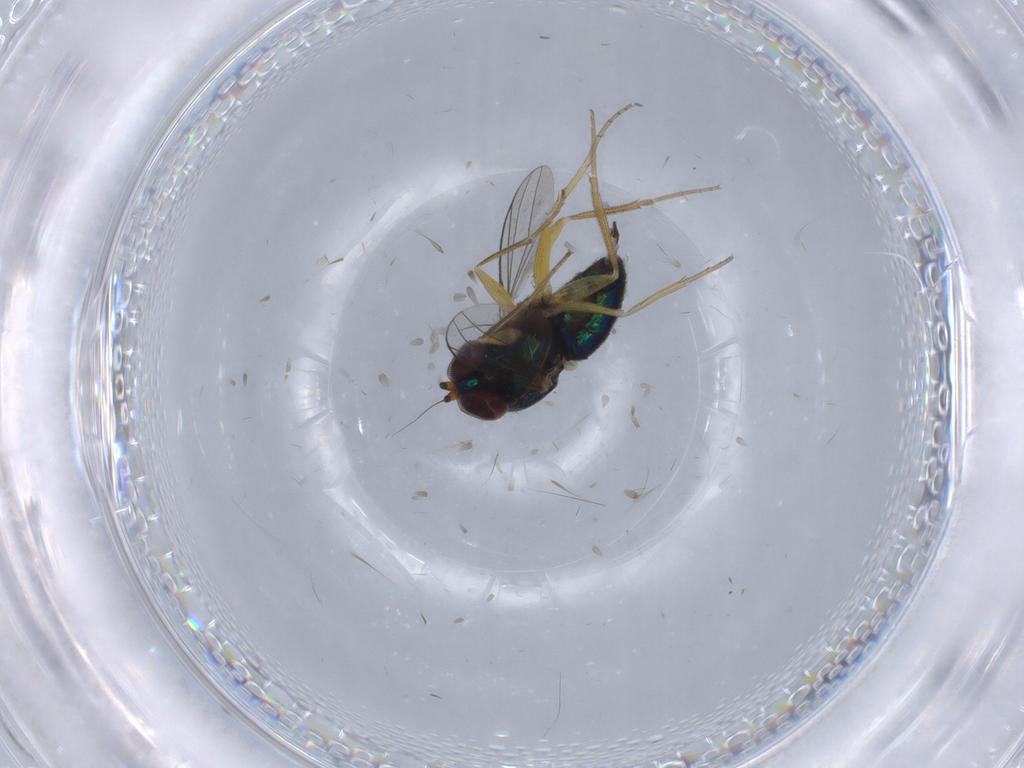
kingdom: Animalia
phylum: Arthropoda
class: Insecta
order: Diptera
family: Dolichopodidae
